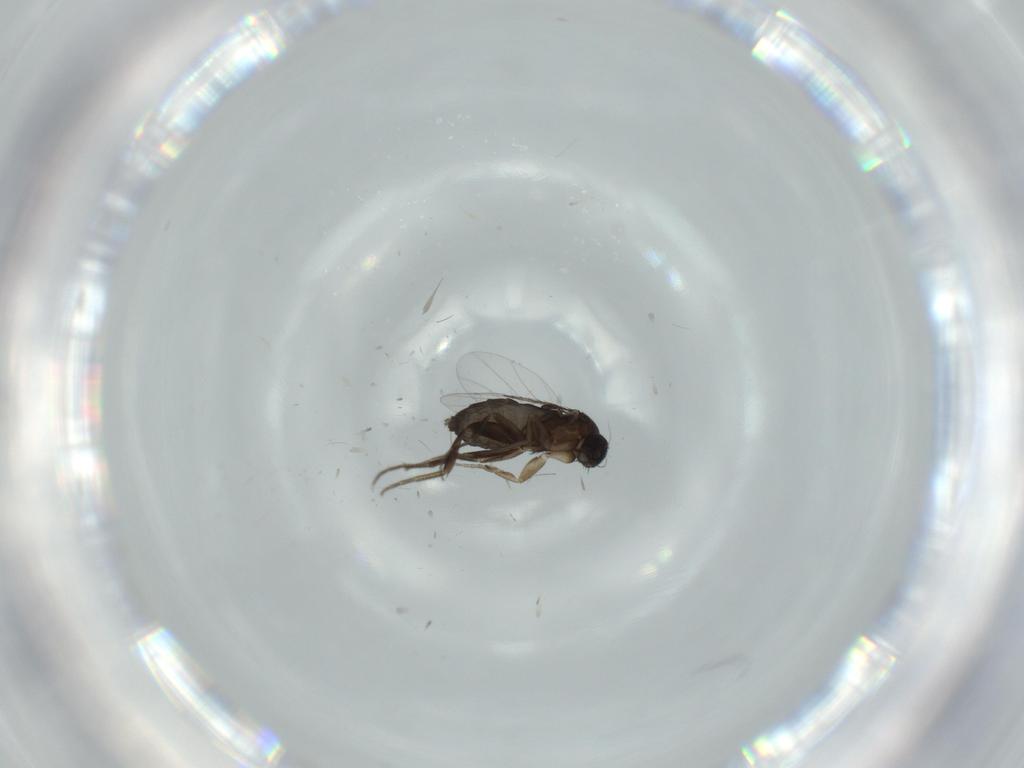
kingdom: Animalia
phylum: Arthropoda
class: Insecta
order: Diptera
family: Phoridae
